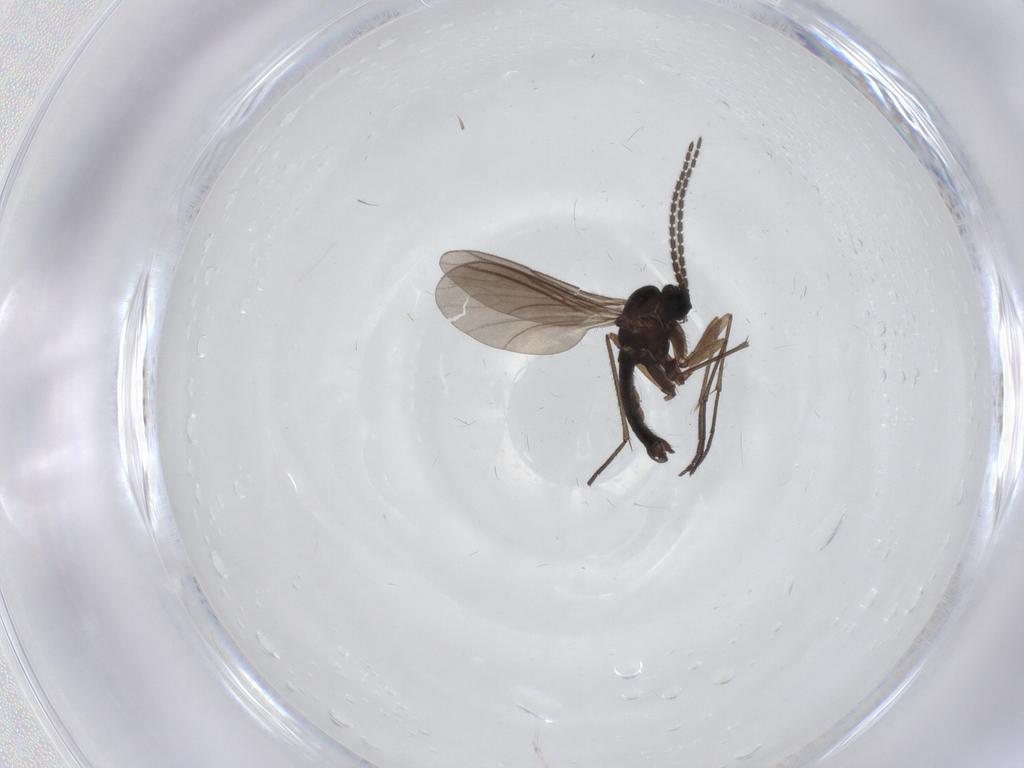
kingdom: Animalia
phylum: Arthropoda
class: Insecta
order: Diptera
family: Sciaridae
